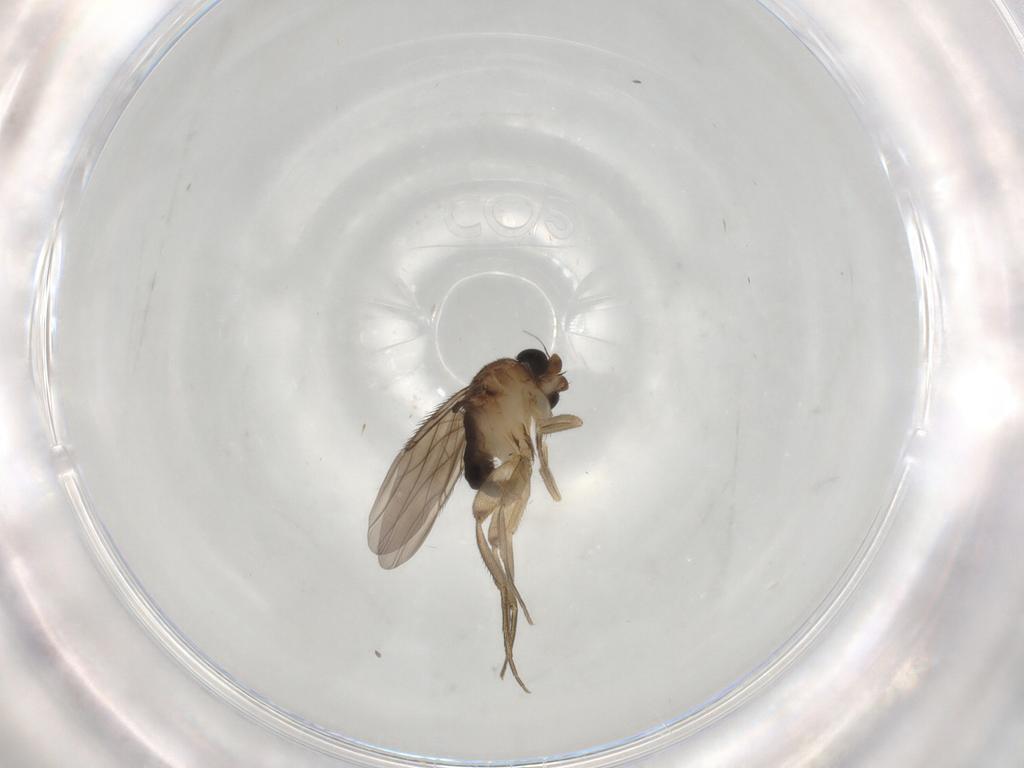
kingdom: Animalia
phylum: Arthropoda
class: Insecta
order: Diptera
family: Phoridae
